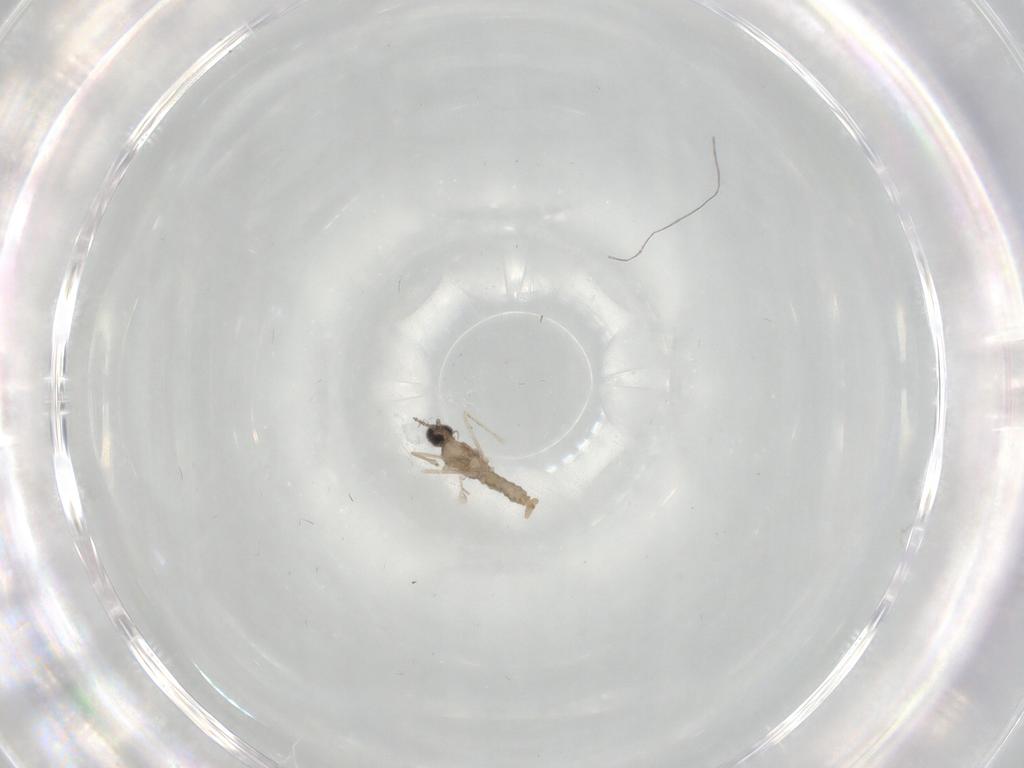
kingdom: Animalia
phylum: Arthropoda
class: Insecta
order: Diptera
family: Cecidomyiidae
